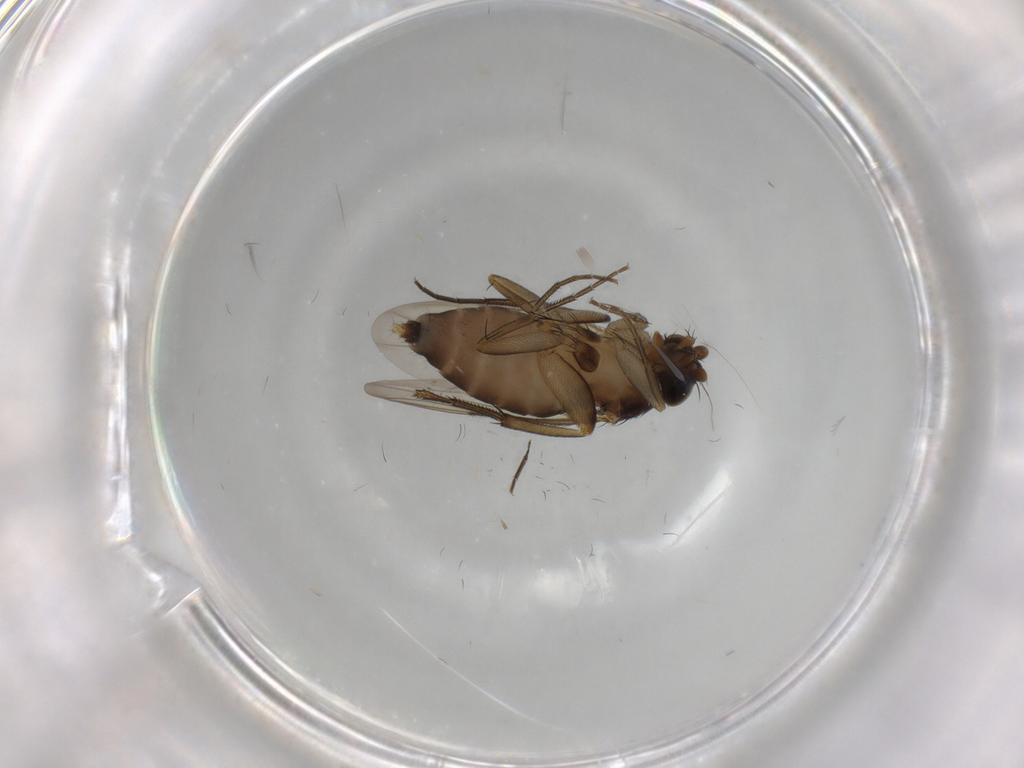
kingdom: Animalia
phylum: Arthropoda
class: Insecta
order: Diptera
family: Phoridae
